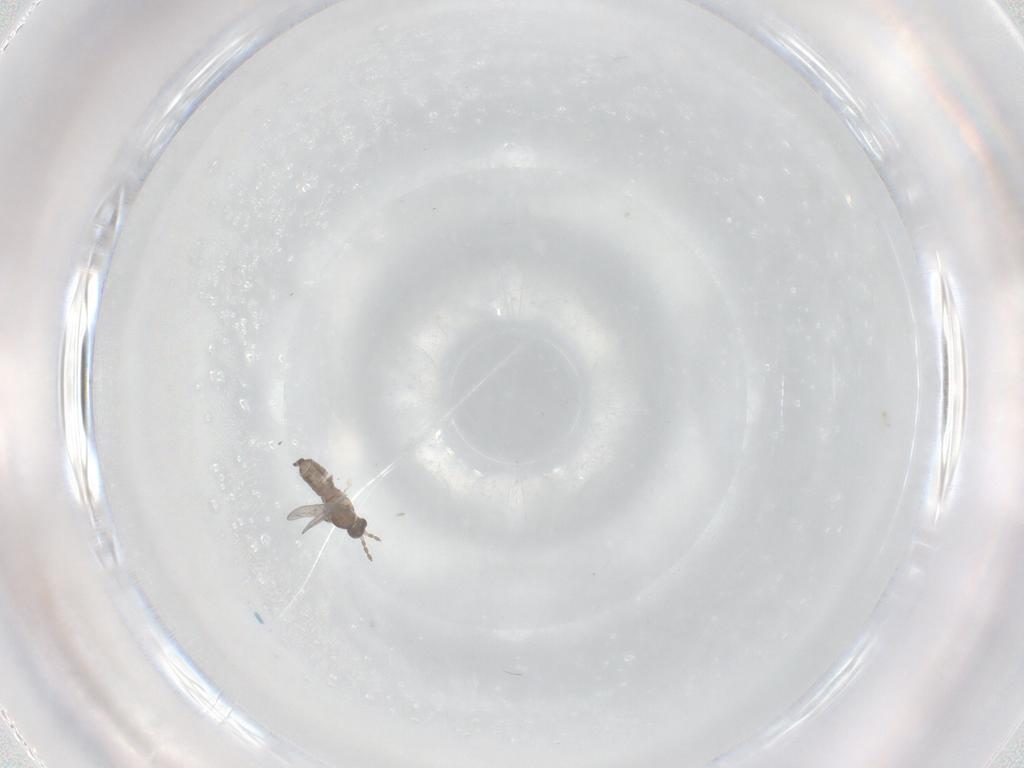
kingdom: Animalia
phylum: Arthropoda
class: Insecta
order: Diptera
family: Cecidomyiidae
